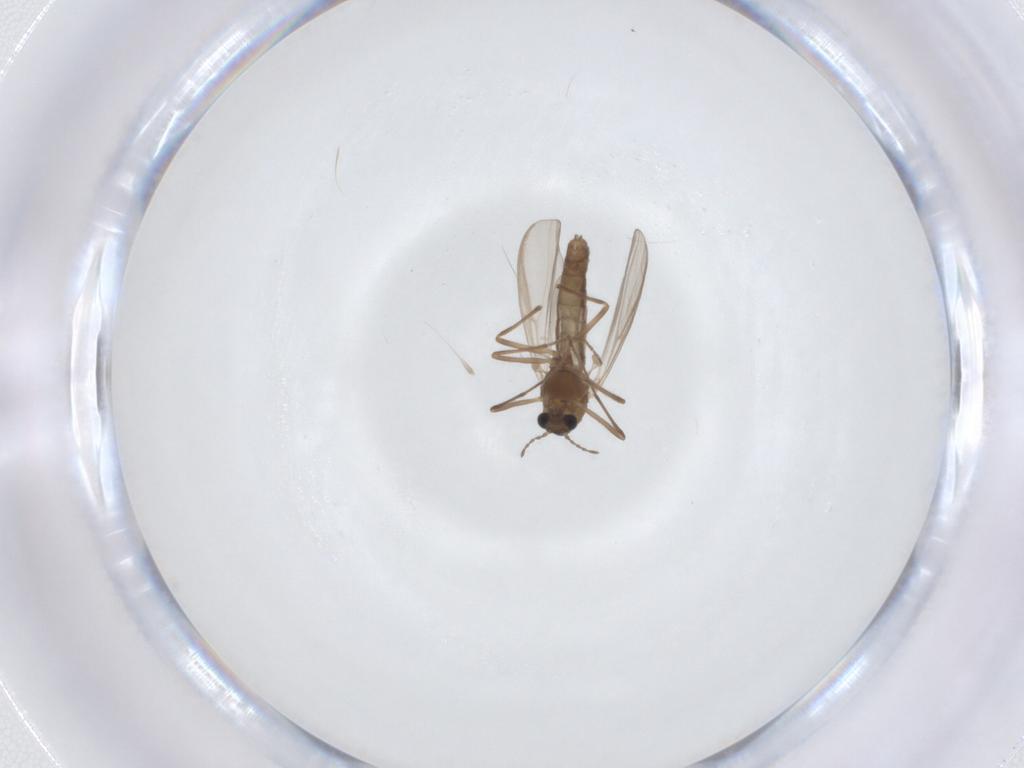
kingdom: Animalia
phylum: Arthropoda
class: Insecta
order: Diptera
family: Chironomidae
